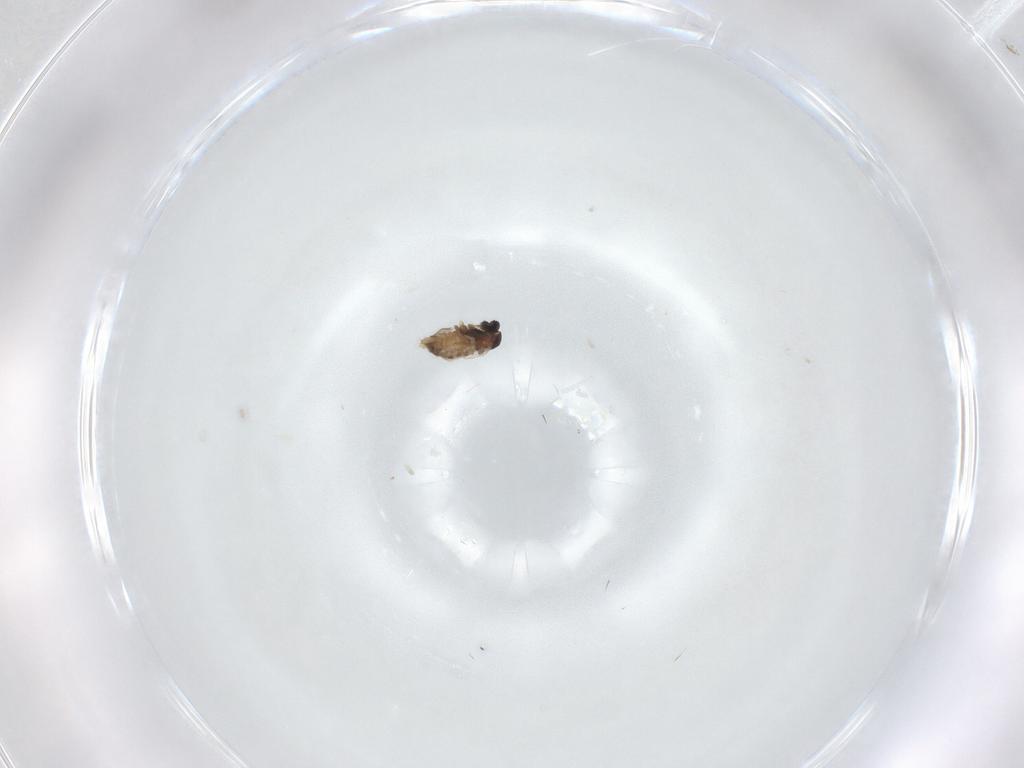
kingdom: Animalia
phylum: Arthropoda
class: Insecta
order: Diptera
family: Cecidomyiidae
